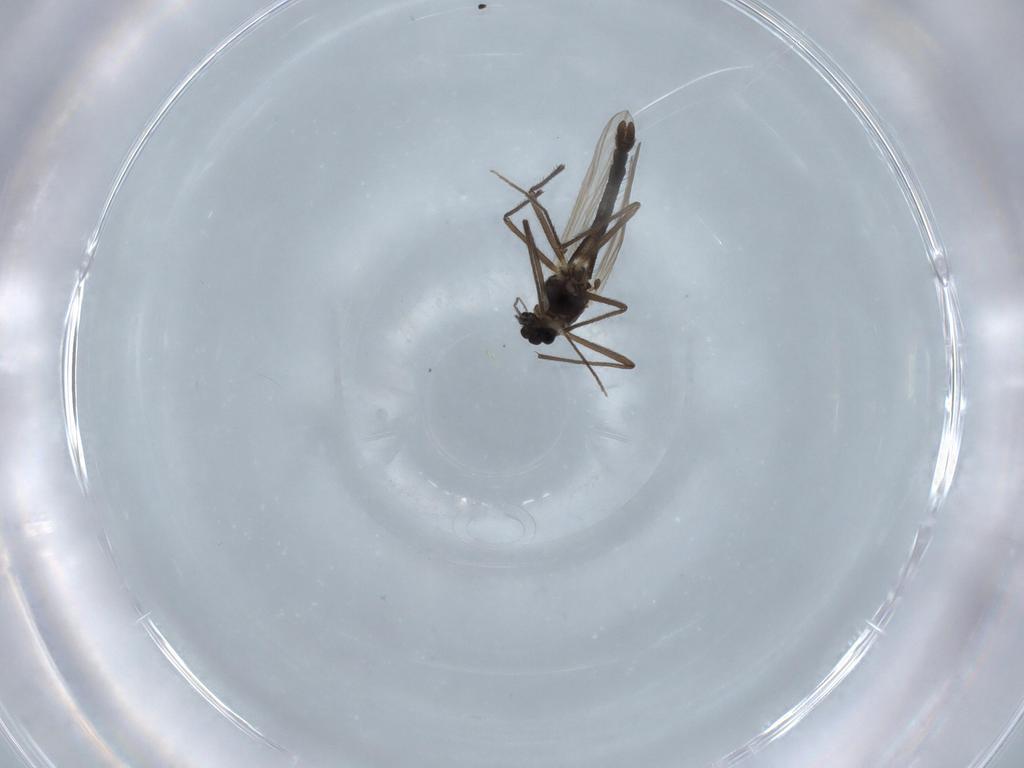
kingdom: Animalia
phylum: Arthropoda
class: Insecta
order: Diptera
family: Chironomidae
